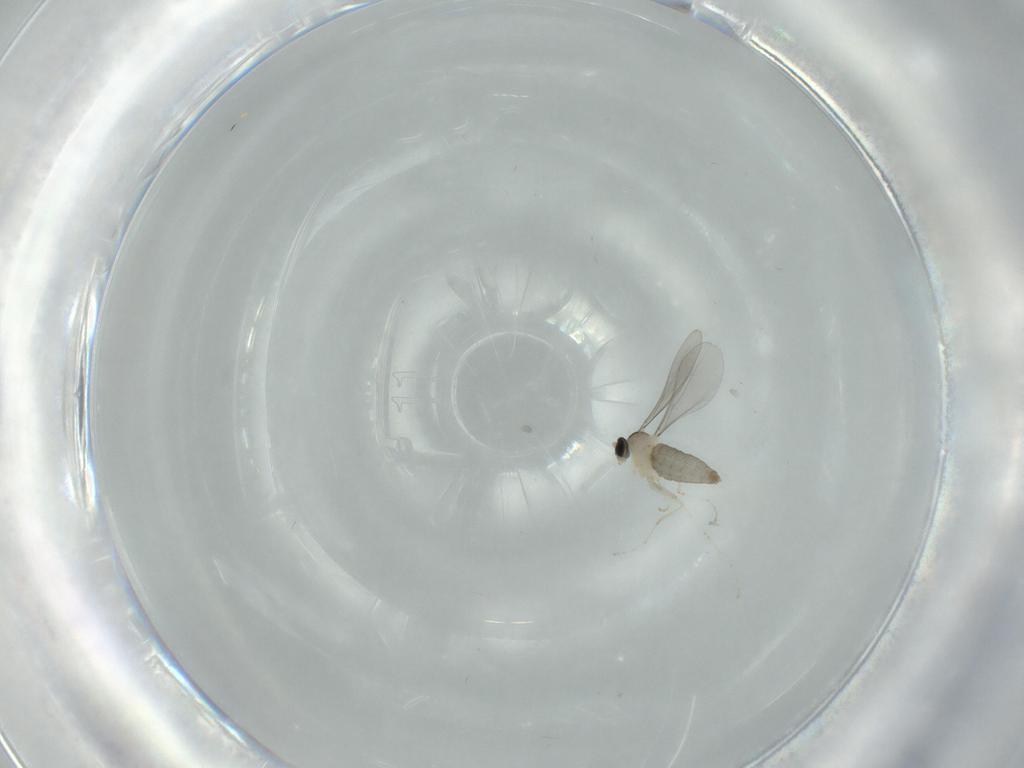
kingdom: Animalia
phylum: Arthropoda
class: Insecta
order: Diptera
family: Cecidomyiidae
